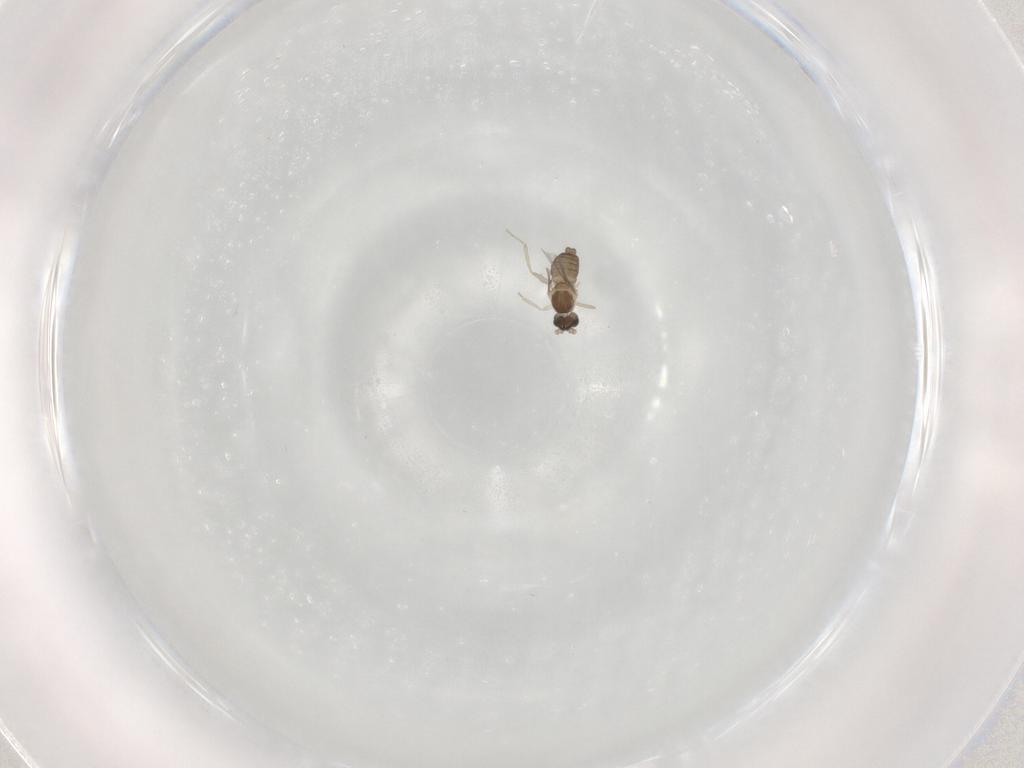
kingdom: Animalia
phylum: Arthropoda
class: Insecta
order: Diptera
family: Cecidomyiidae
